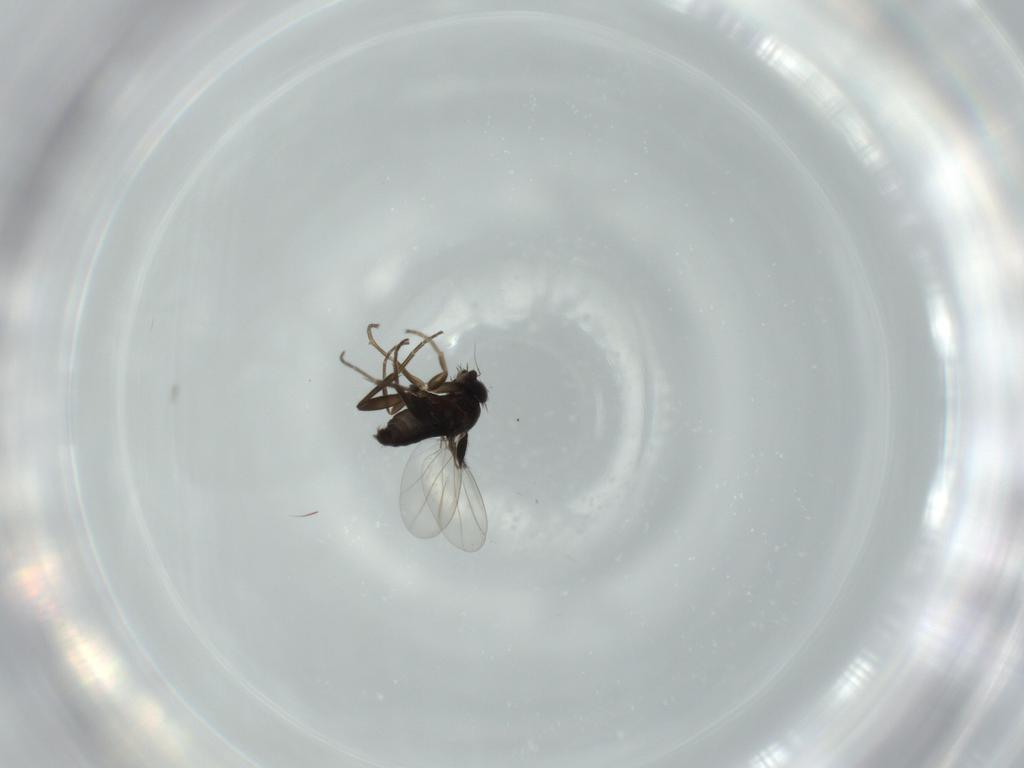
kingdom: Animalia
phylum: Arthropoda
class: Insecta
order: Diptera
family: Phoridae
